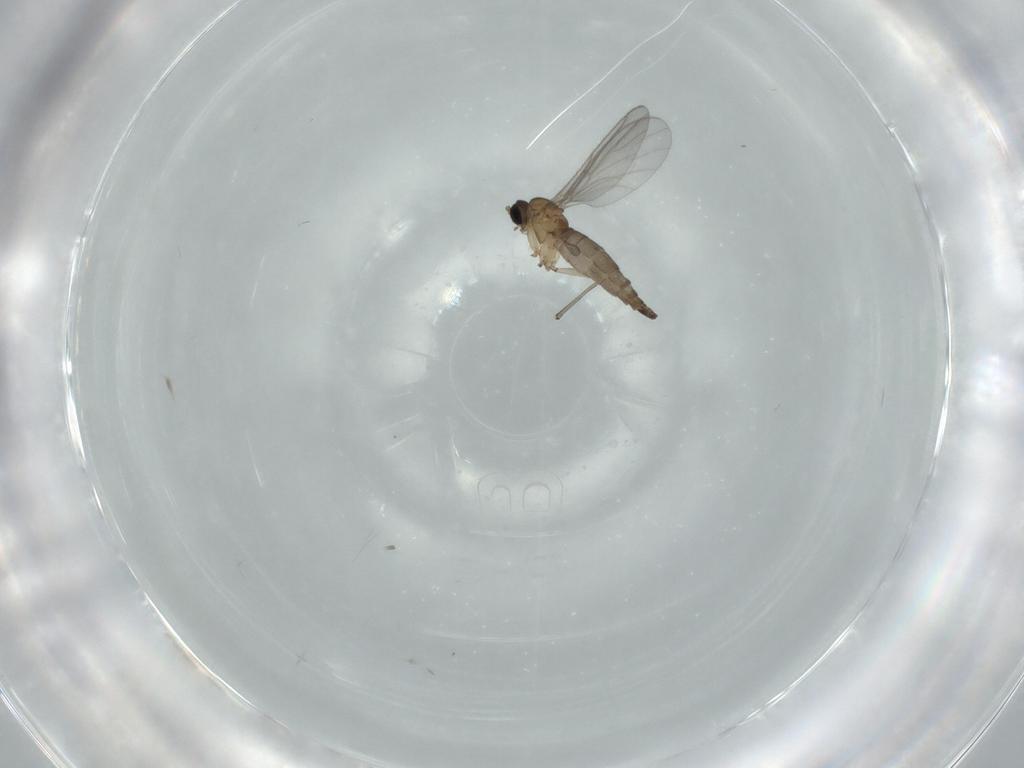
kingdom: Animalia
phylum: Arthropoda
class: Insecta
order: Diptera
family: Sciaridae
